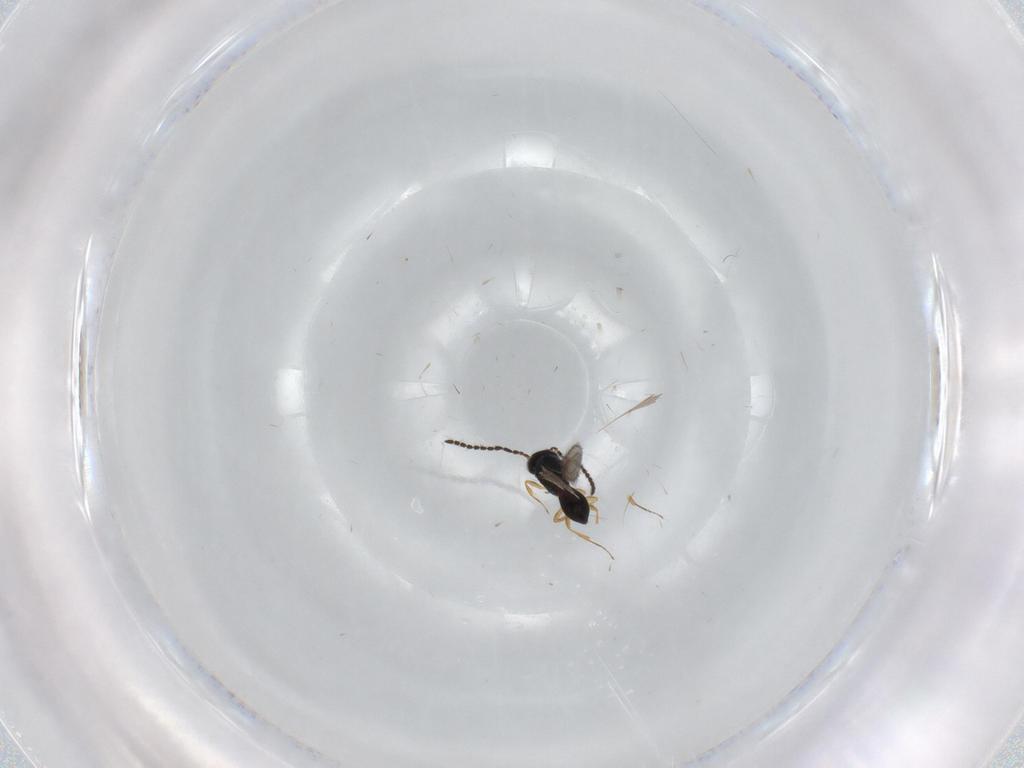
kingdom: Animalia
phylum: Arthropoda
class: Insecta
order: Hymenoptera
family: Scelionidae
